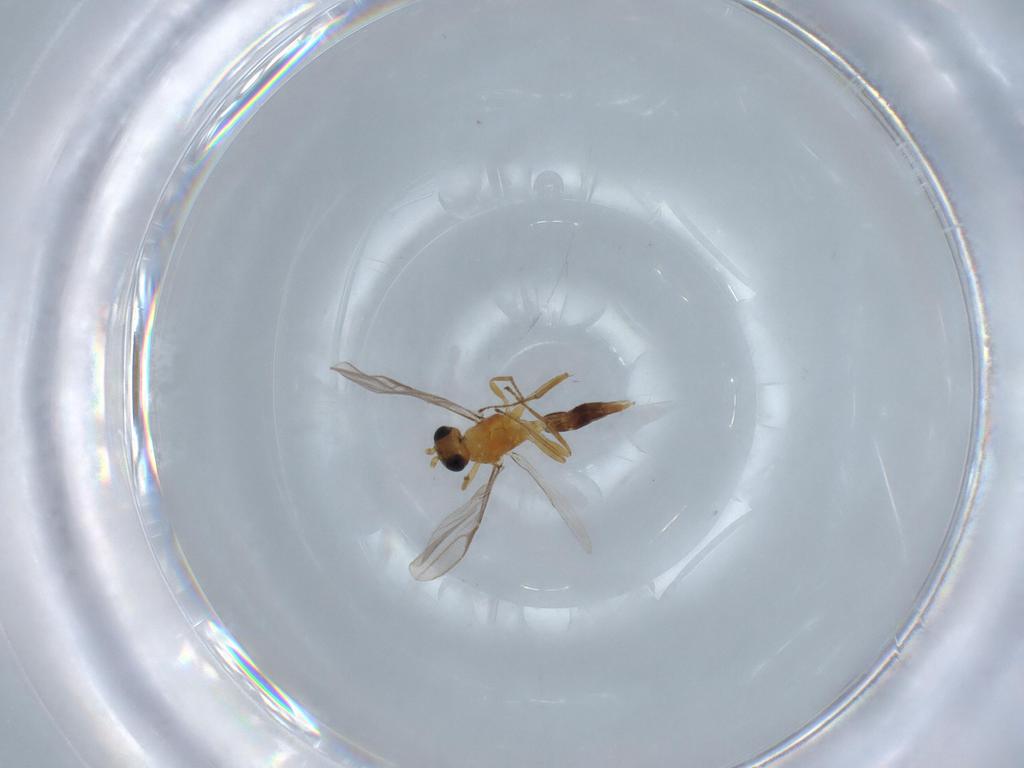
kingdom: Animalia
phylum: Arthropoda
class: Insecta
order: Hymenoptera
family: Braconidae
